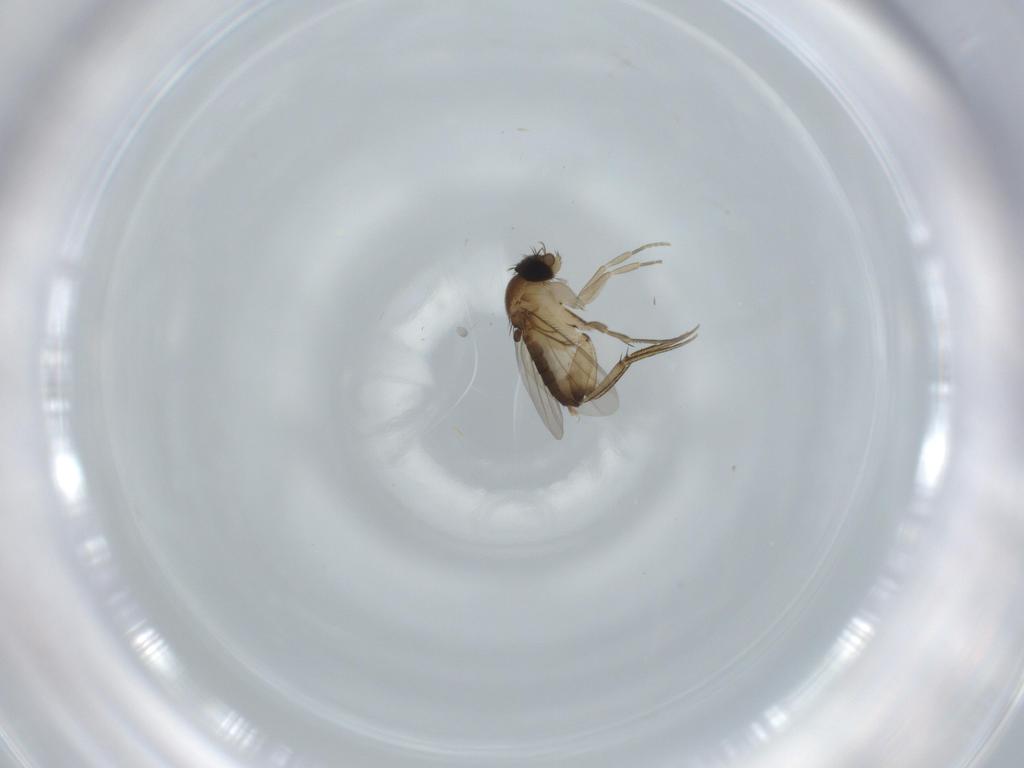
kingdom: Animalia
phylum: Arthropoda
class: Insecta
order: Diptera
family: Phoridae
